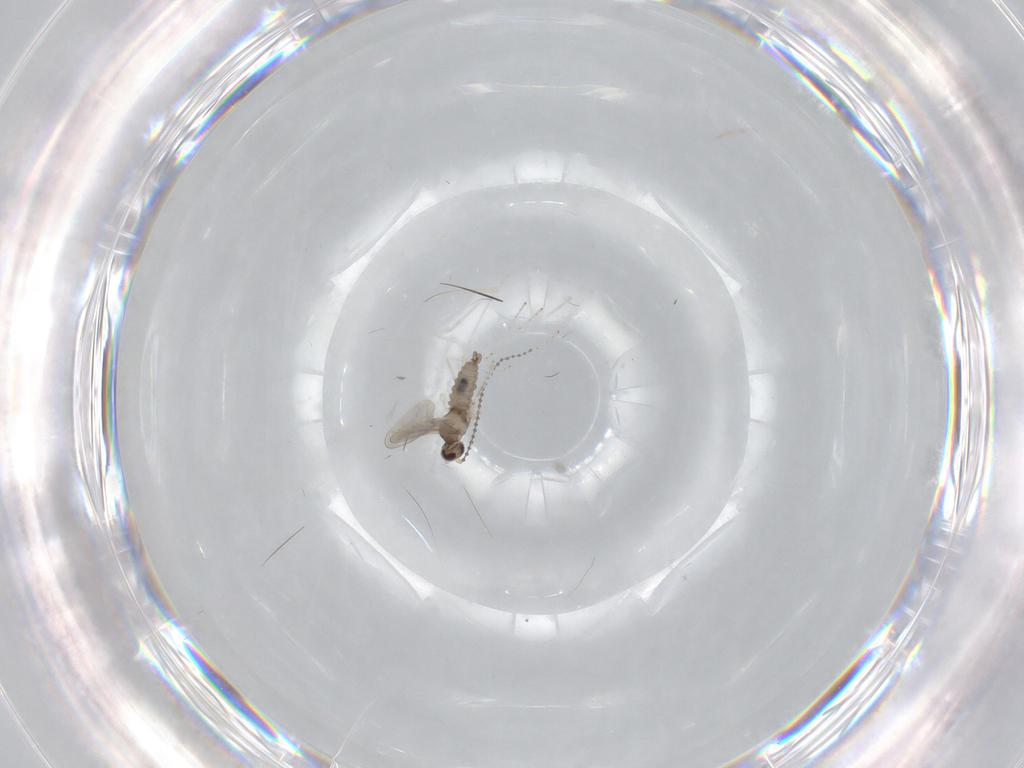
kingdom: Animalia
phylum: Arthropoda
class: Insecta
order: Diptera
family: Cecidomyiidae
